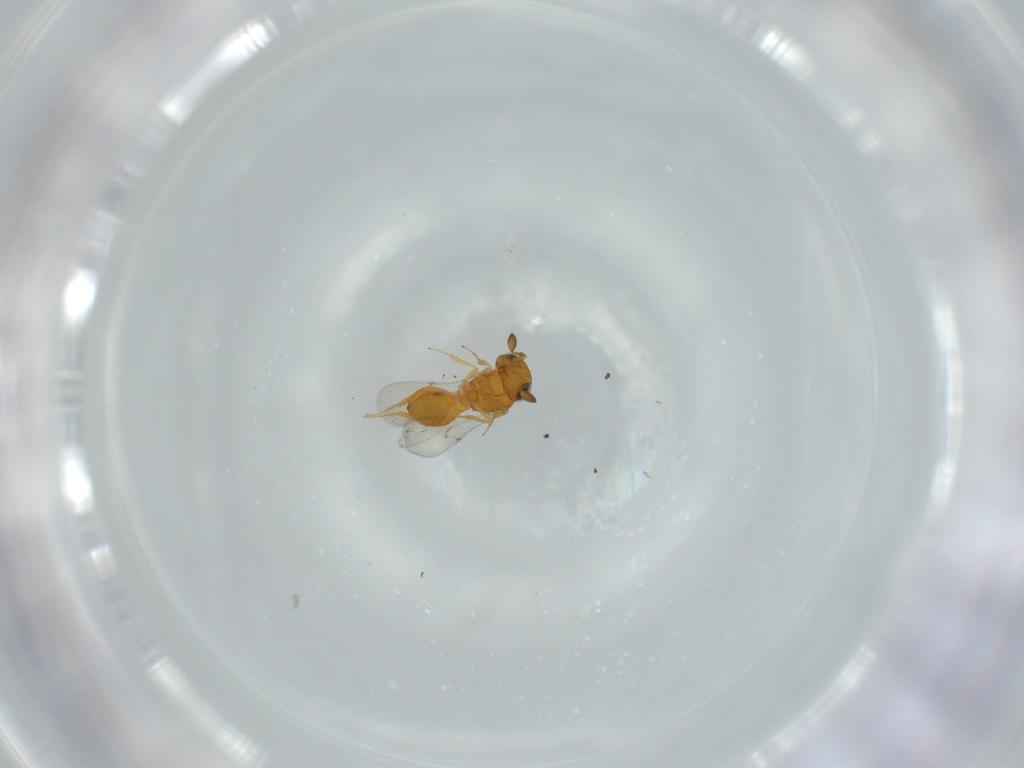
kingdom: Animalia
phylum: Arthropoda
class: Insecta
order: Hymenoptera
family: Scelionidae
